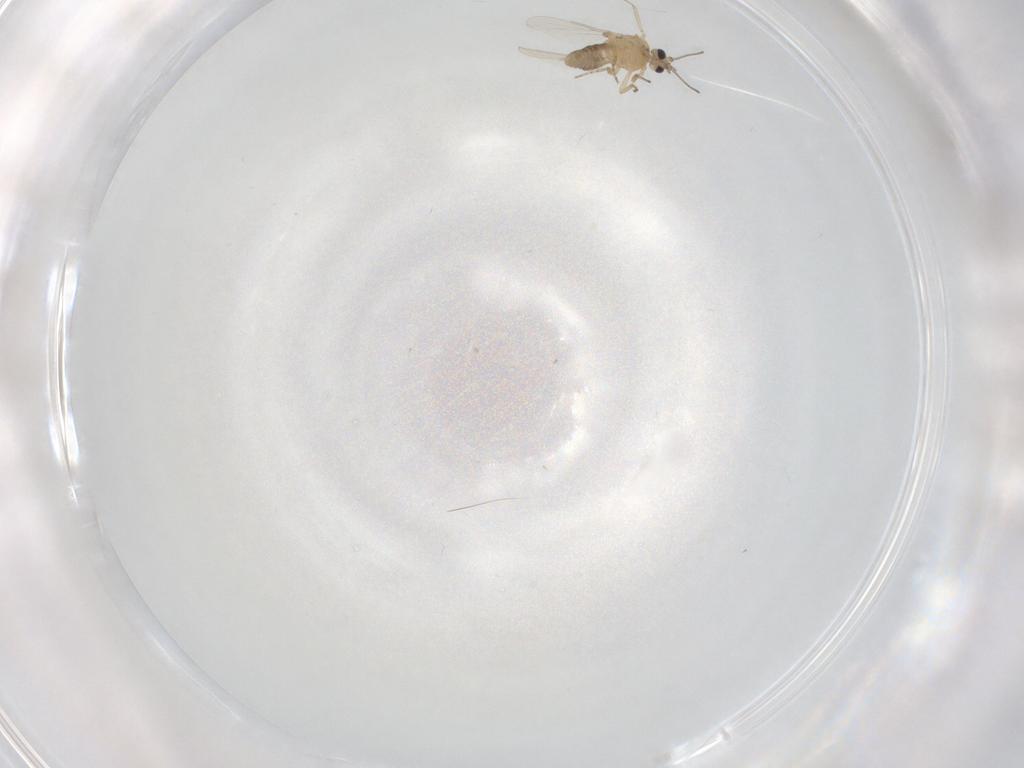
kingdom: Animalia
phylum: Arthropoda
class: Insecta
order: Diptera
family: Ceratopogonidae
